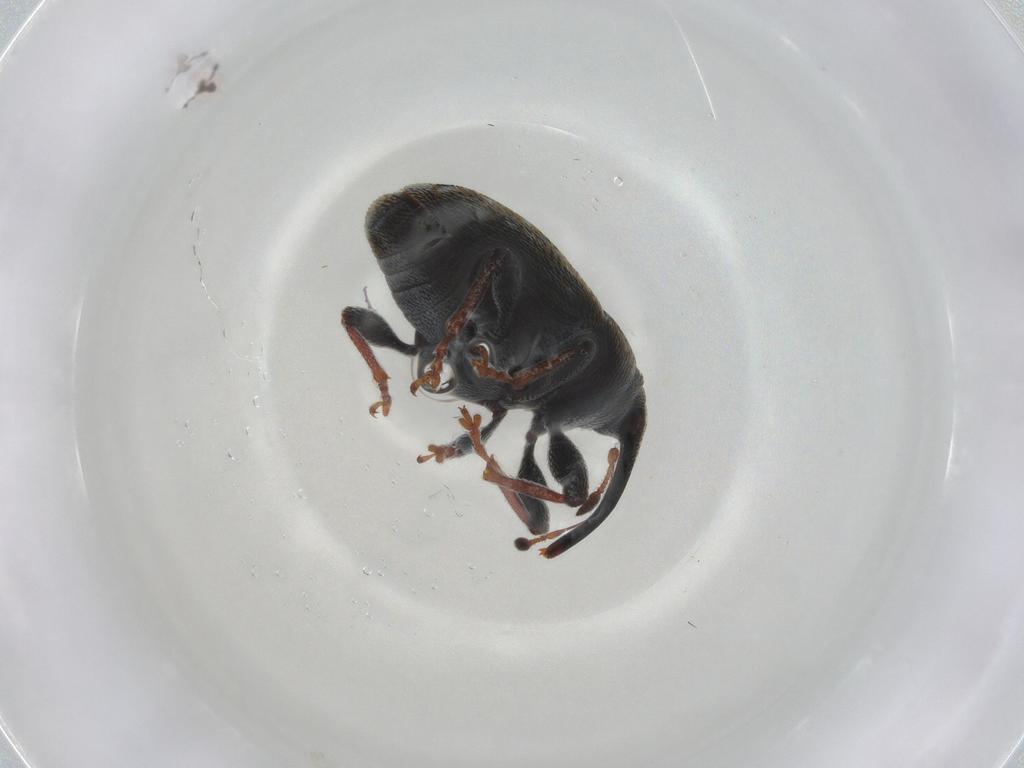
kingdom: Animalia
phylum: Arthropoda
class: Insecta
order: Coleoptera
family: Curculionidae
